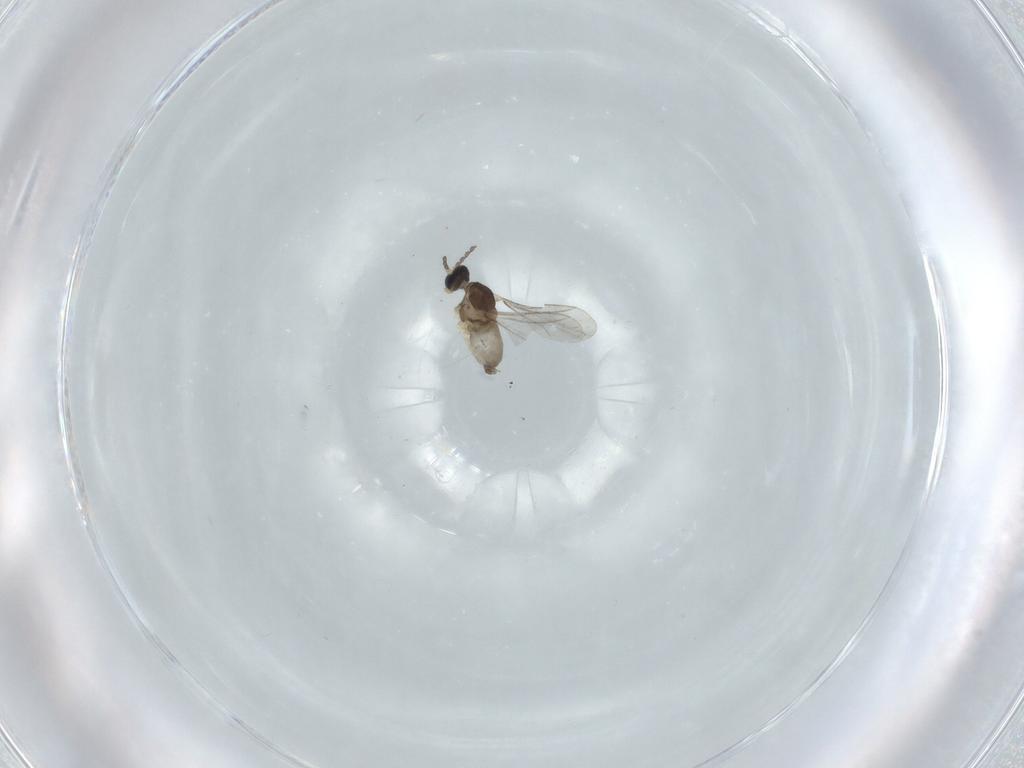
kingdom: Animalia
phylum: Arthropoda
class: Insecta
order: Diptera
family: Cecidomyiidae
